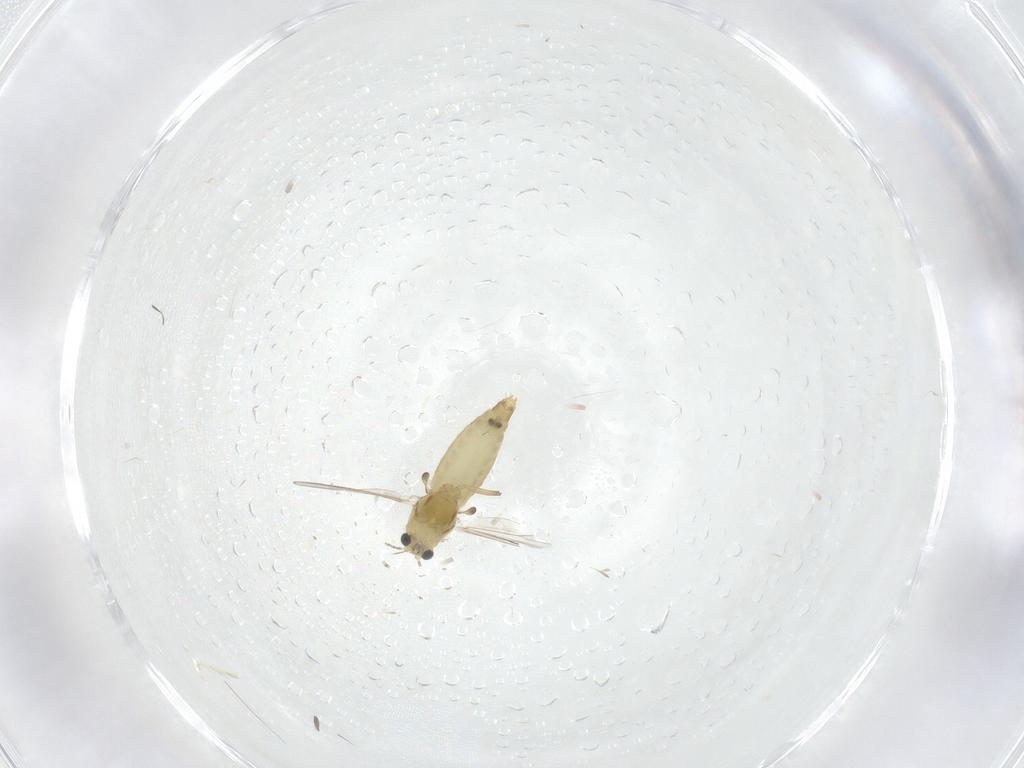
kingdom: Animalia
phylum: Arthropoda
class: Insecta
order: Diptera
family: Chironomidae
